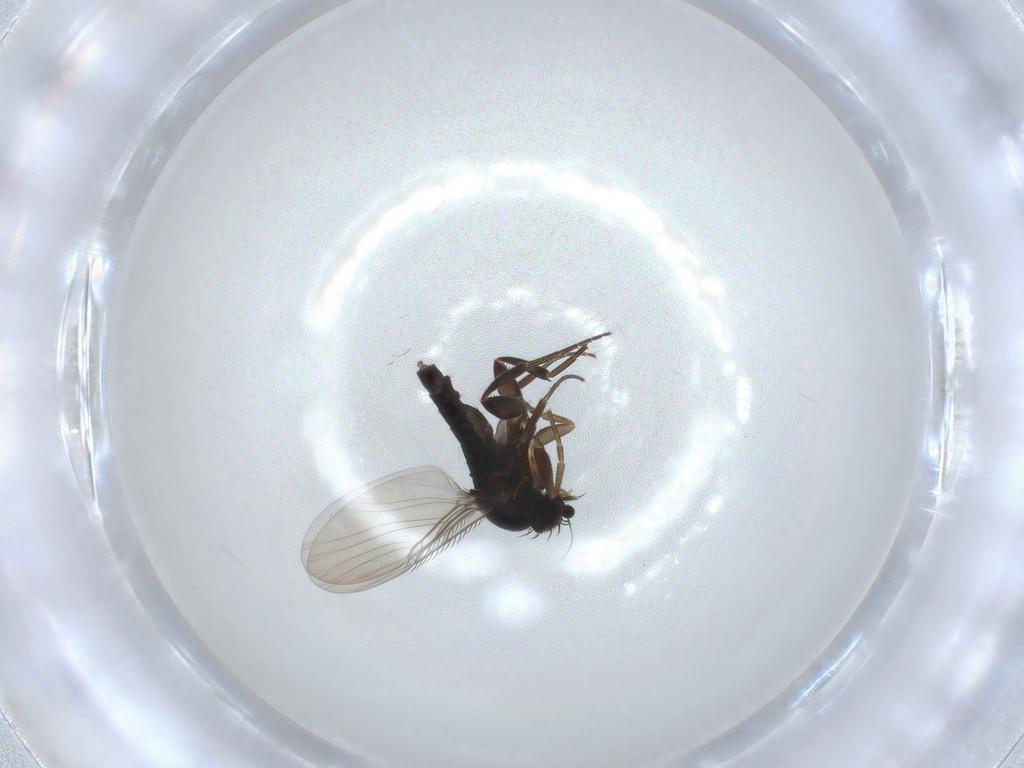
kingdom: Animalia
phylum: Arthropoda
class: Insecta
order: Diptera
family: Phoridae
